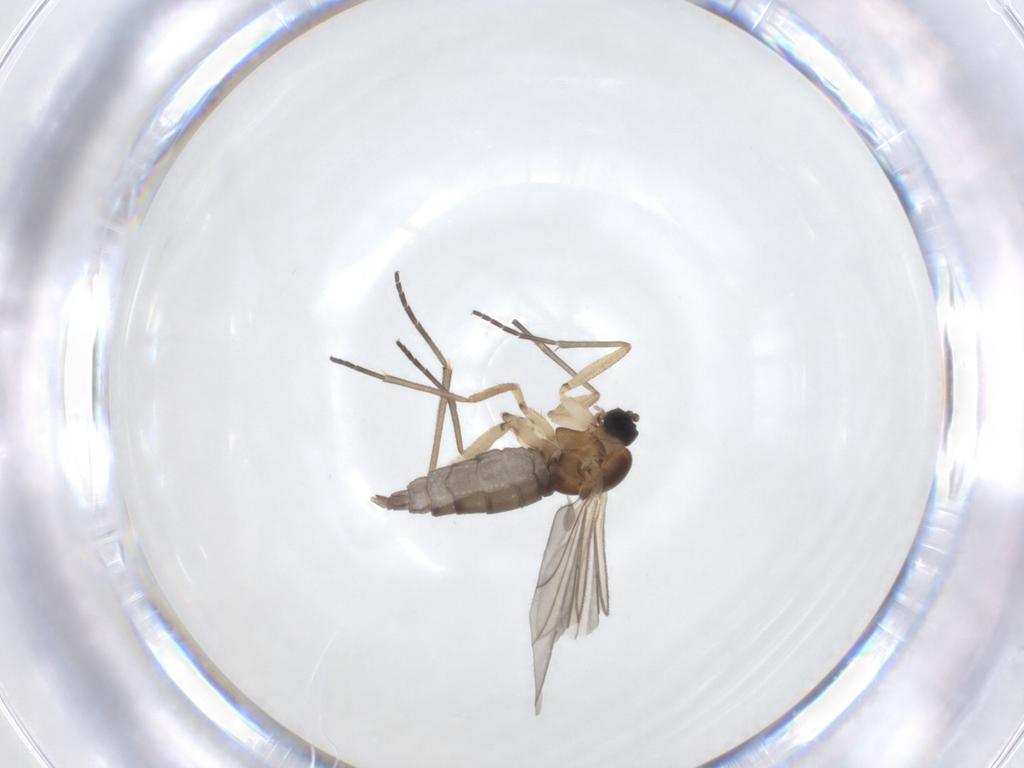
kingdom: Animalia
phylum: Arthropoda
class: Insecta
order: Diptera
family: Sciaridae
